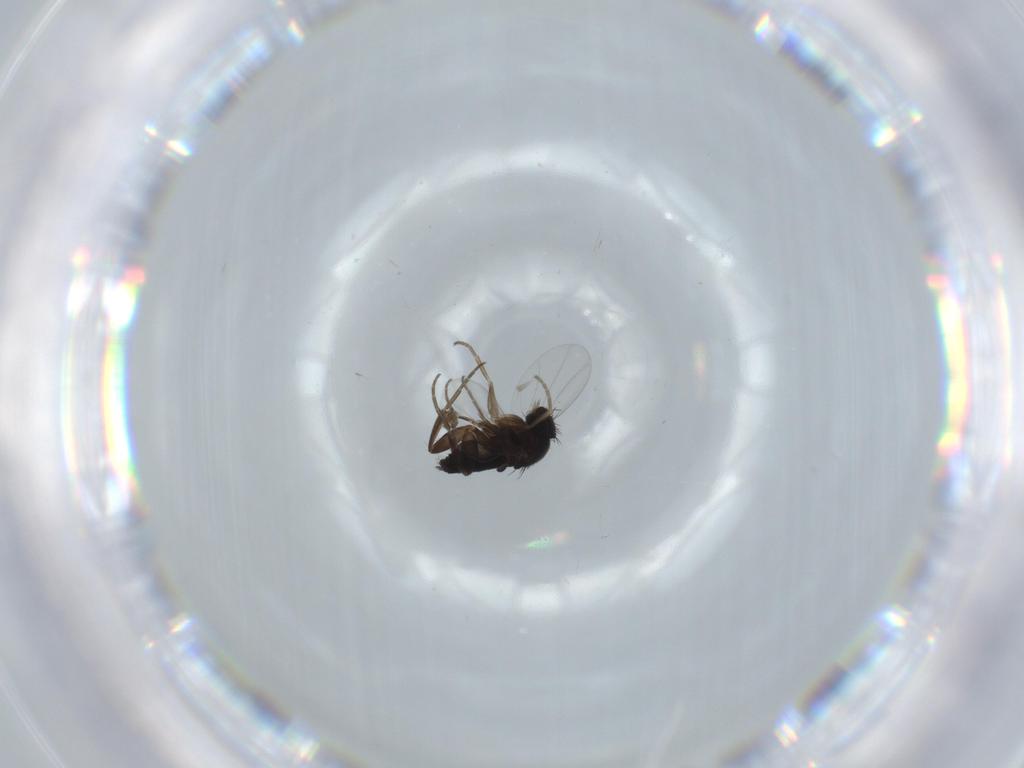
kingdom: Animalia
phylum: Arthropoda
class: Insecta
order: Diptera
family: Phoridae
